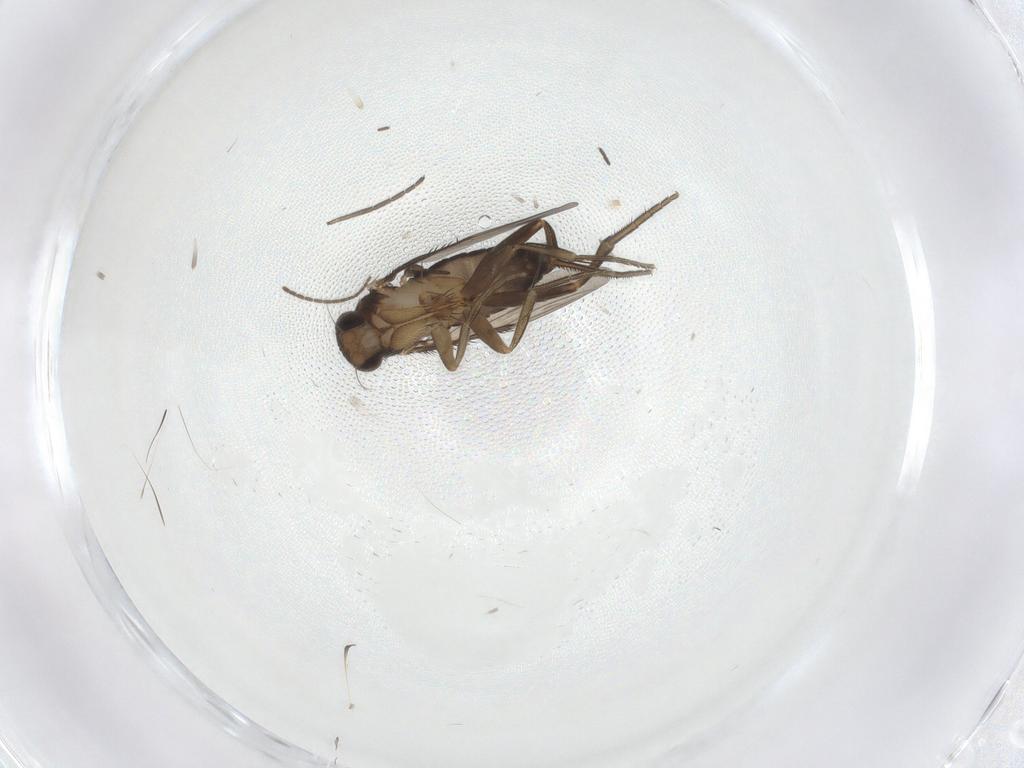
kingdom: Animalia
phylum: Arthropoda
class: Insecta
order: Diptera
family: Phoridae
